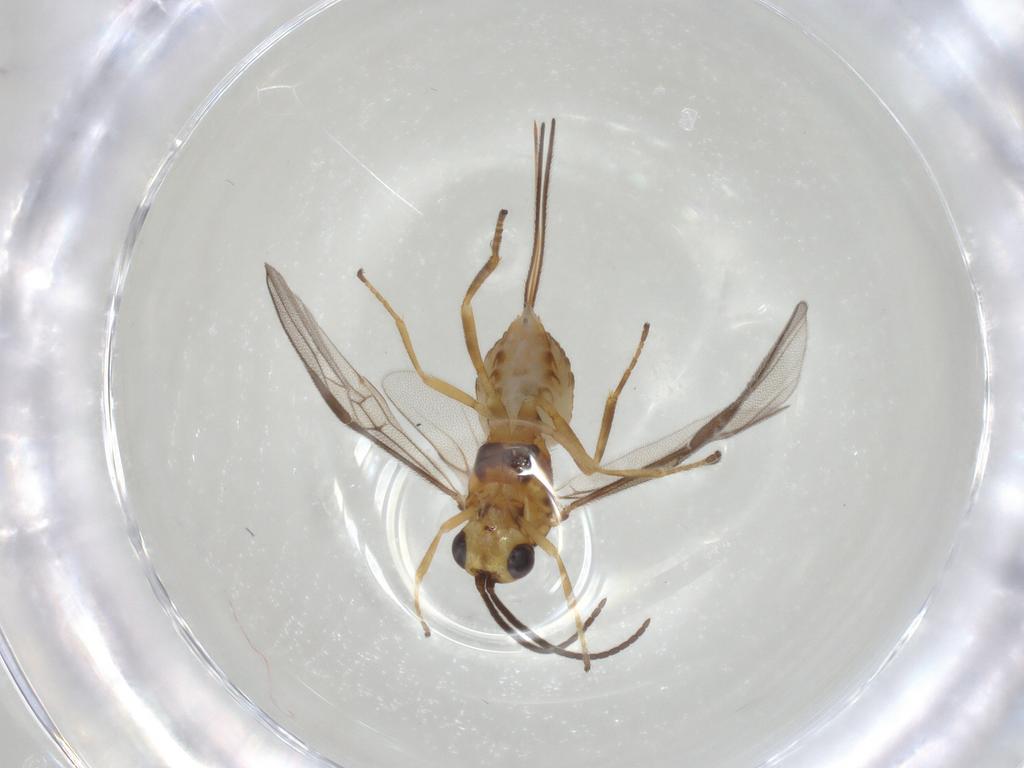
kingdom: Animalia
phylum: Arthropoda
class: Insecta
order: Hymenoptera
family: Braconidae
